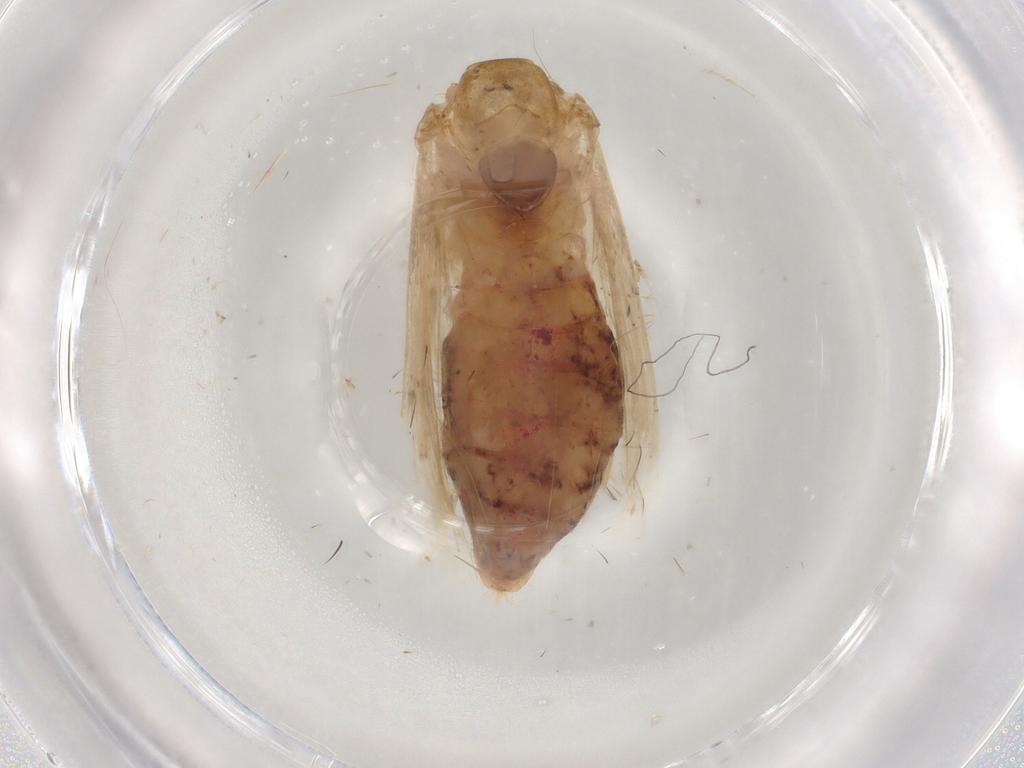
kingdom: Animalia
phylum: Arthropoda
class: Insecta
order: Lepidoptera
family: Nolidae
